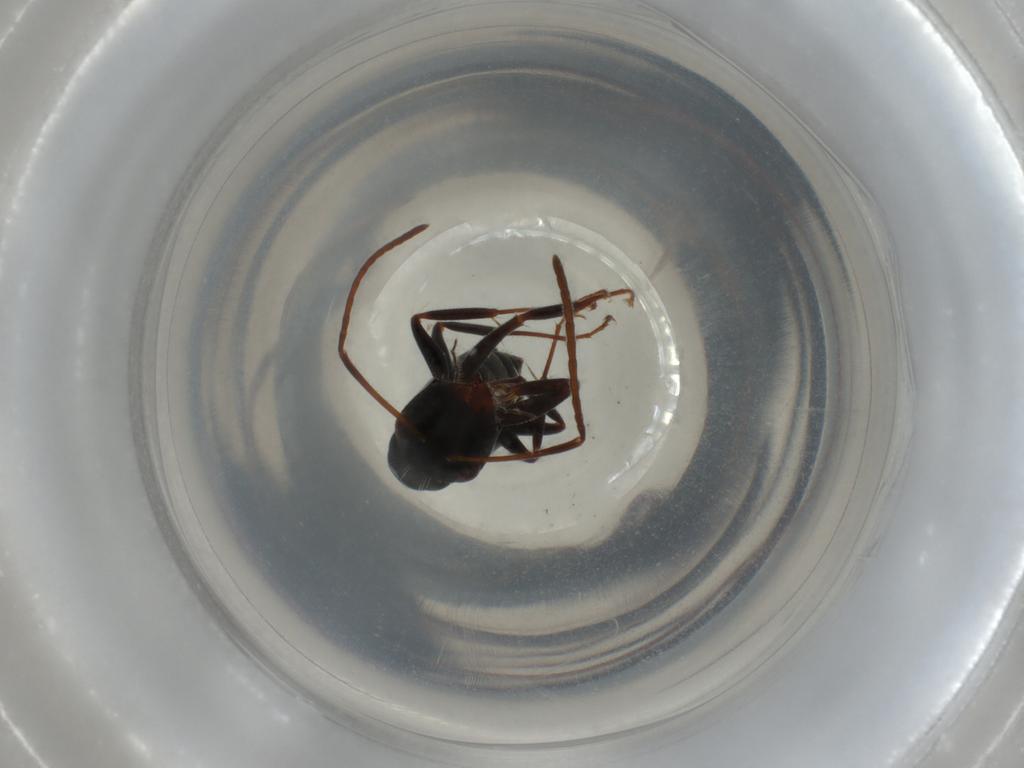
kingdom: Animalia
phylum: Arthropoda
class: Insecta
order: Hymenoptera
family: Formicidae
